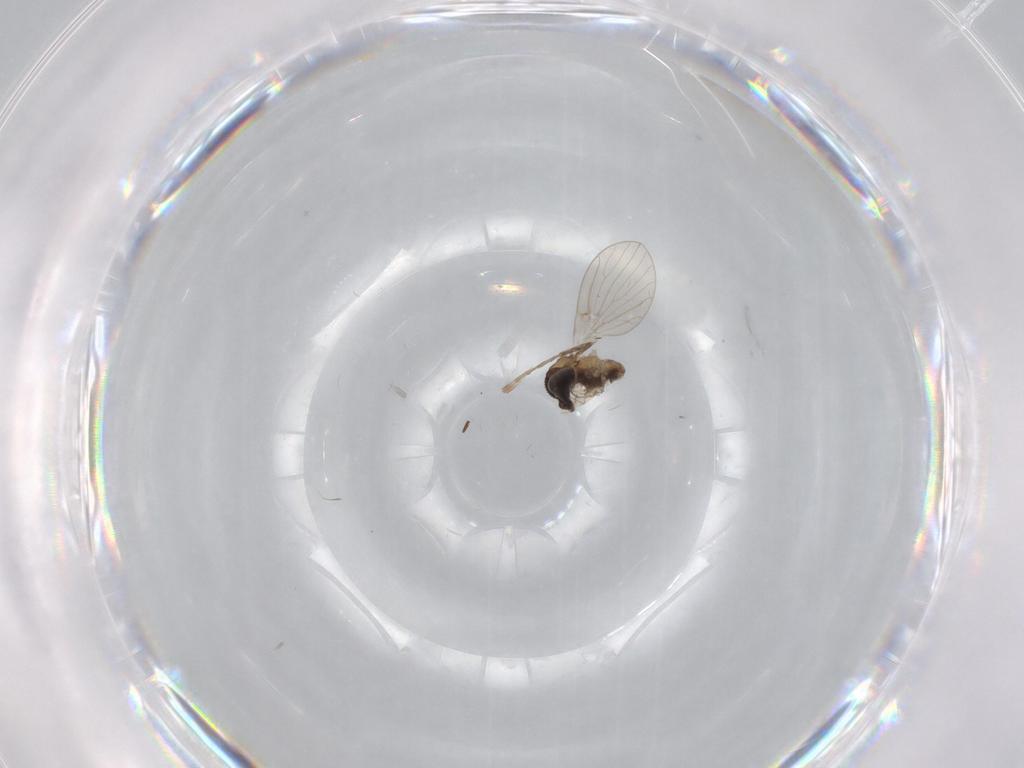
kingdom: Animalia
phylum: Arthropoda
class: Insecta
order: Diptera
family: Psychodidae
